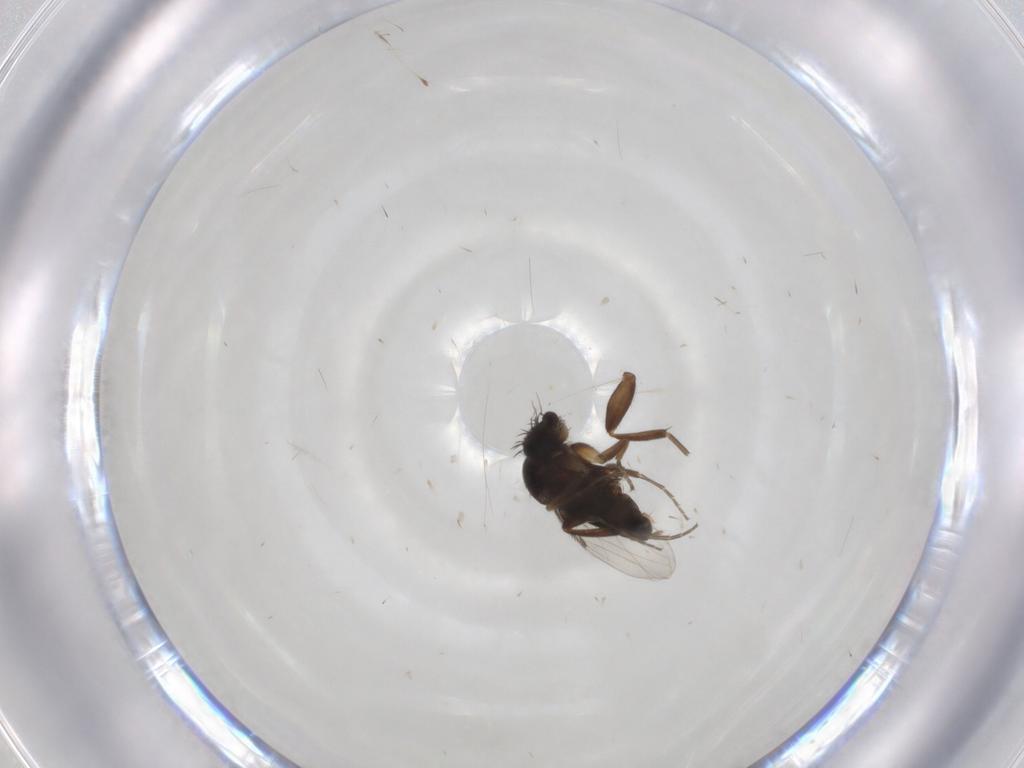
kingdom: Animalia
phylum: Arthropoda
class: Insecta
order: Diptera
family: Phoridae
